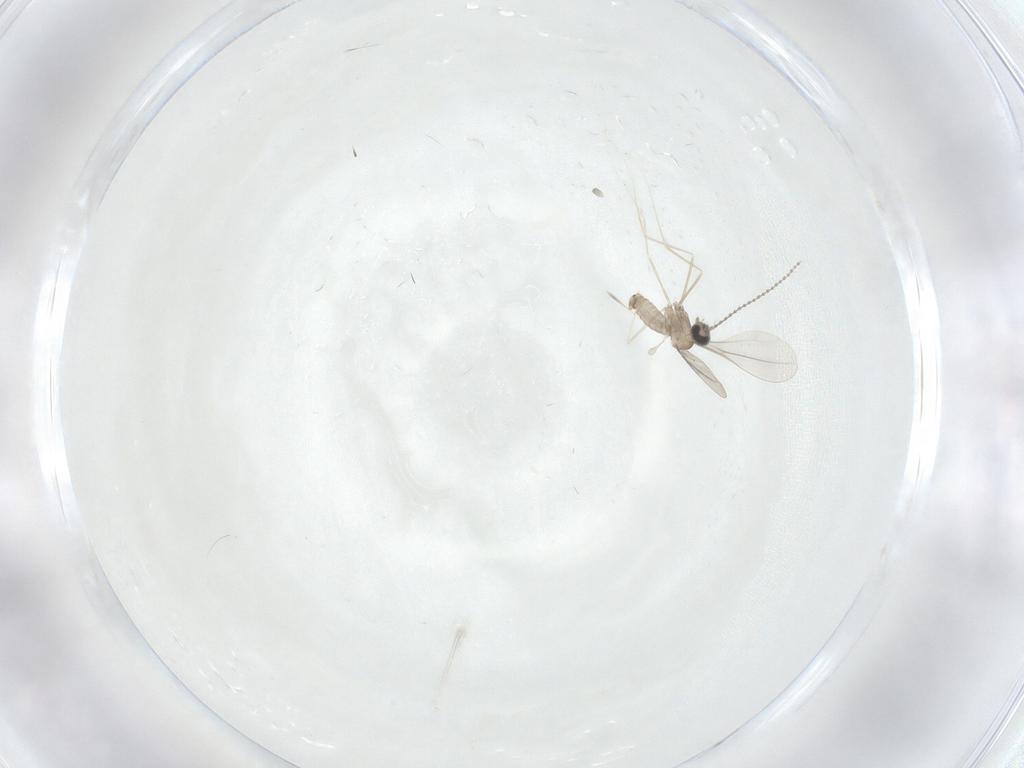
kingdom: Animalia
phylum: Arthropoda
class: Insecta
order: Diptera
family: Psychodidae
